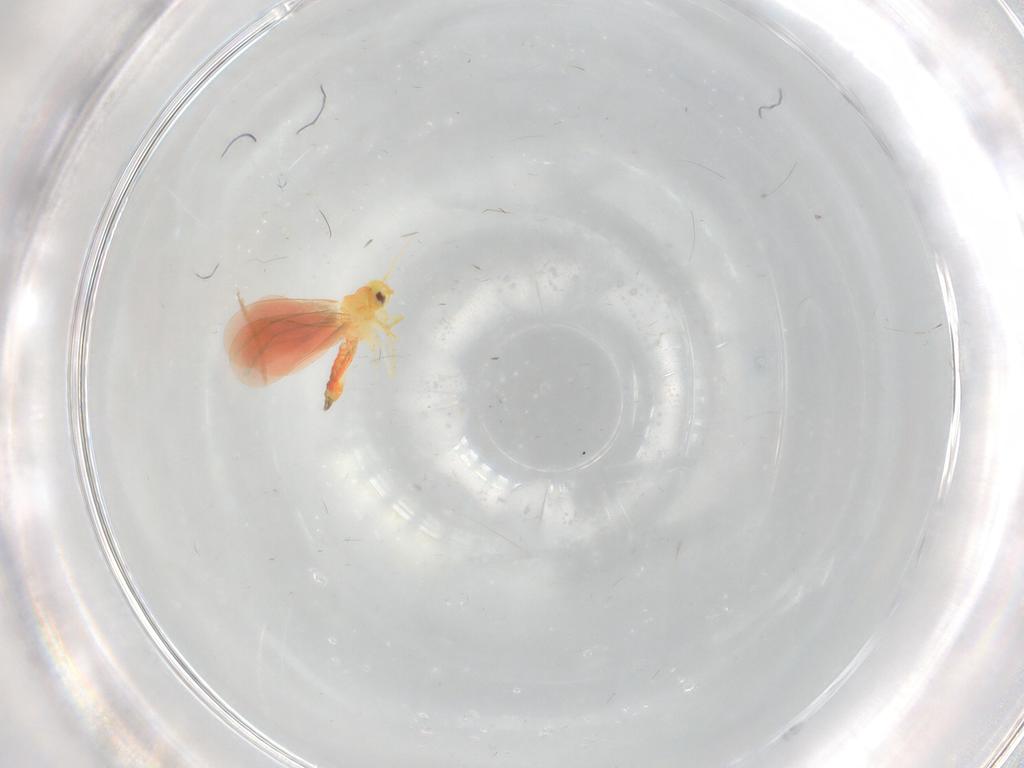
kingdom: Animalia
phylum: Arthropoda
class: Insecta
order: Hemiptera
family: Aleyrodidae
